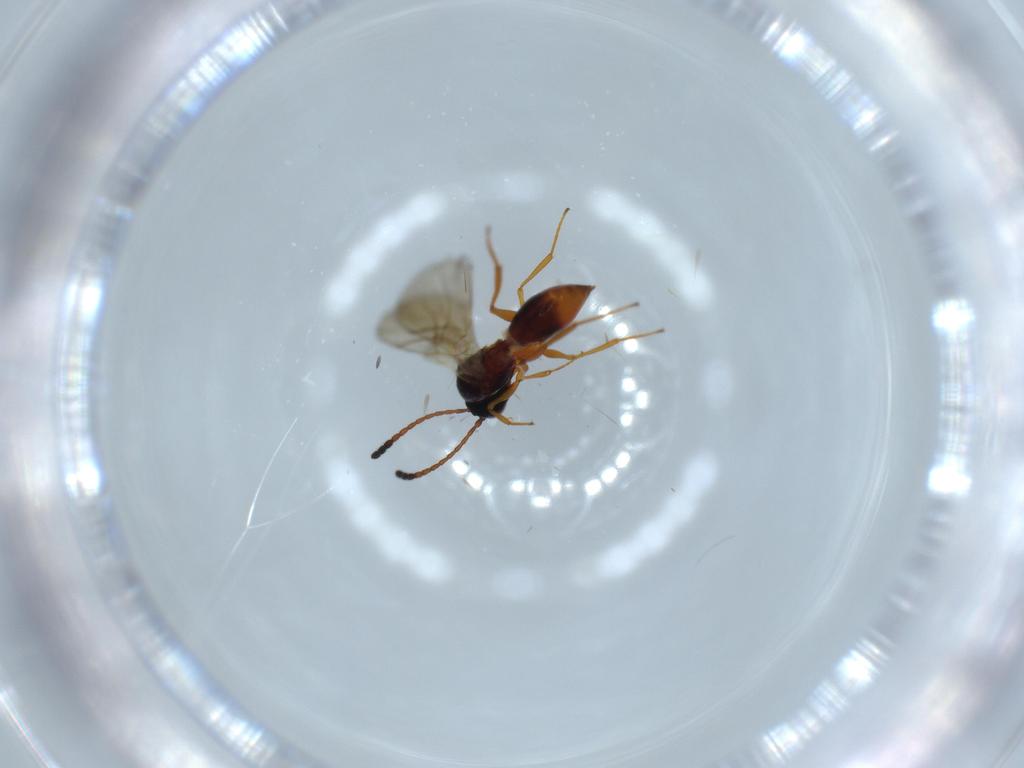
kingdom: Animalia
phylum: Arthropoda
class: Insecta
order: Hymenoptera
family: Figitidae
